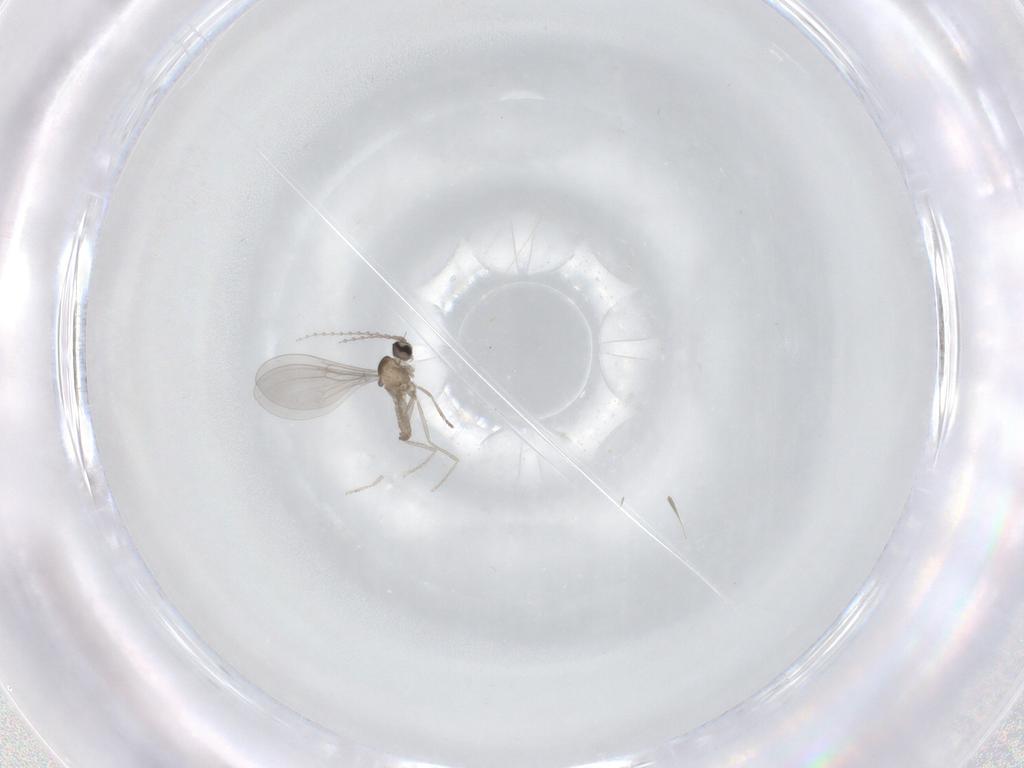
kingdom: Animalia
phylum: Arthropoda
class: Insecta
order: Diptera
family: Cecidomyiidae
